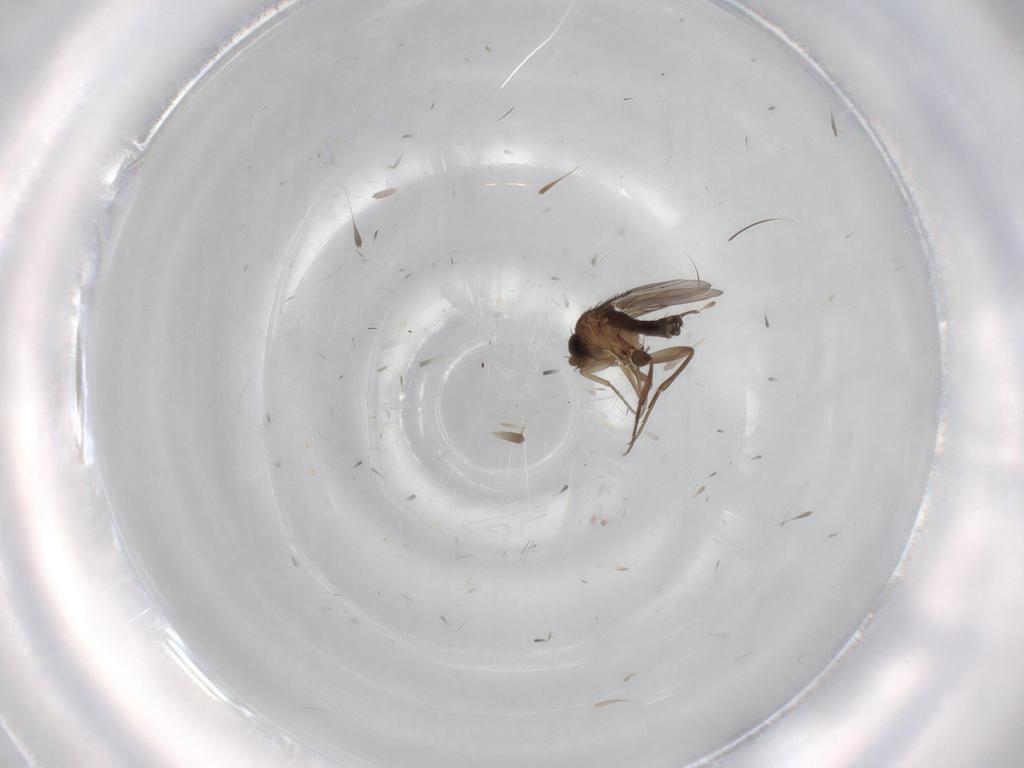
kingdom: Animalia
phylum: Arthropoda
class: Insecta
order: Diptera
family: Phoridae
